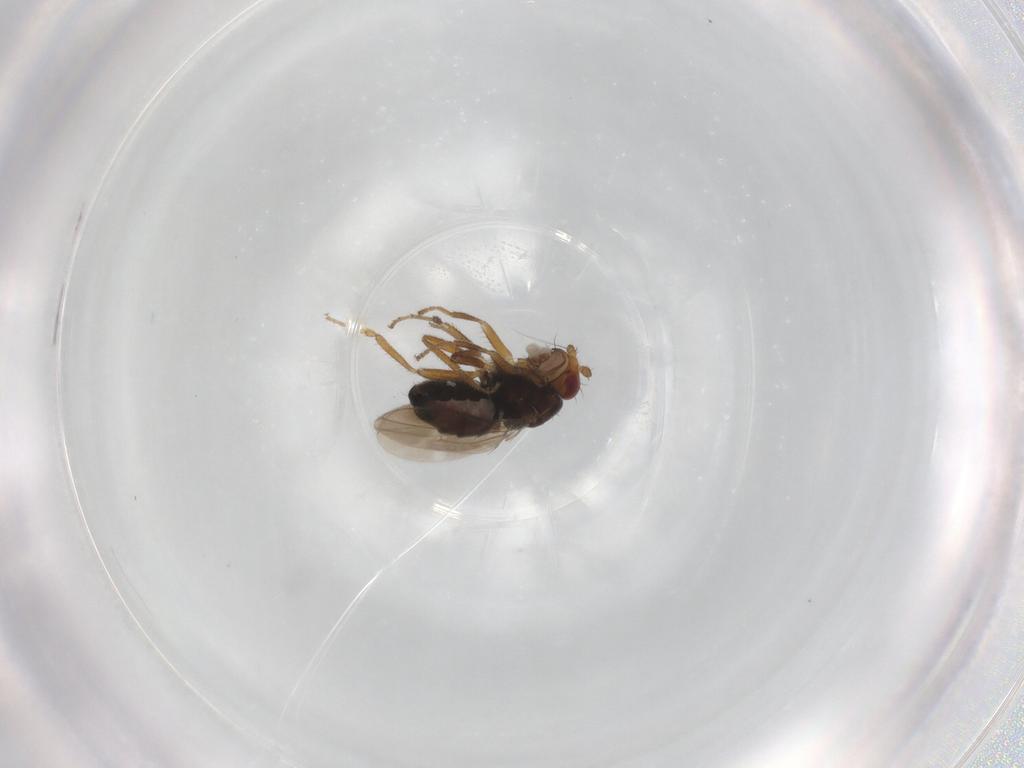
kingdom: Animalia
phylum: Arthropoda
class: Insecta
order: Diptera
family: Sphaeroceridae
